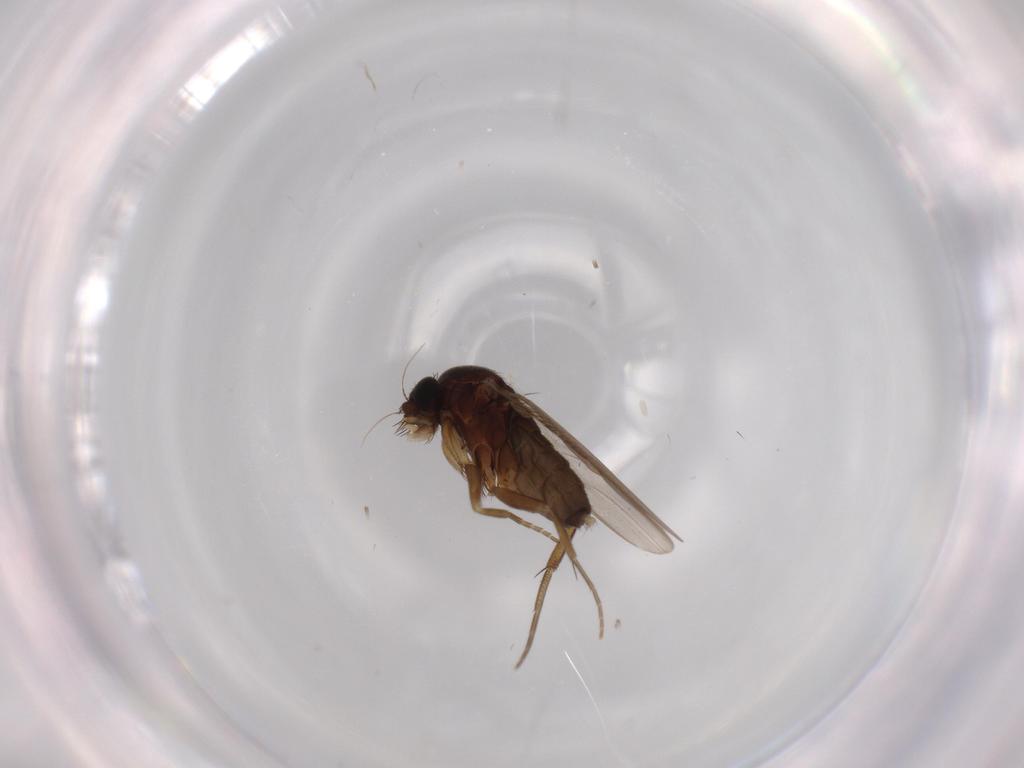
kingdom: Animalia
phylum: Arthropoda
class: Insecta
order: Diptera
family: Phoridae
